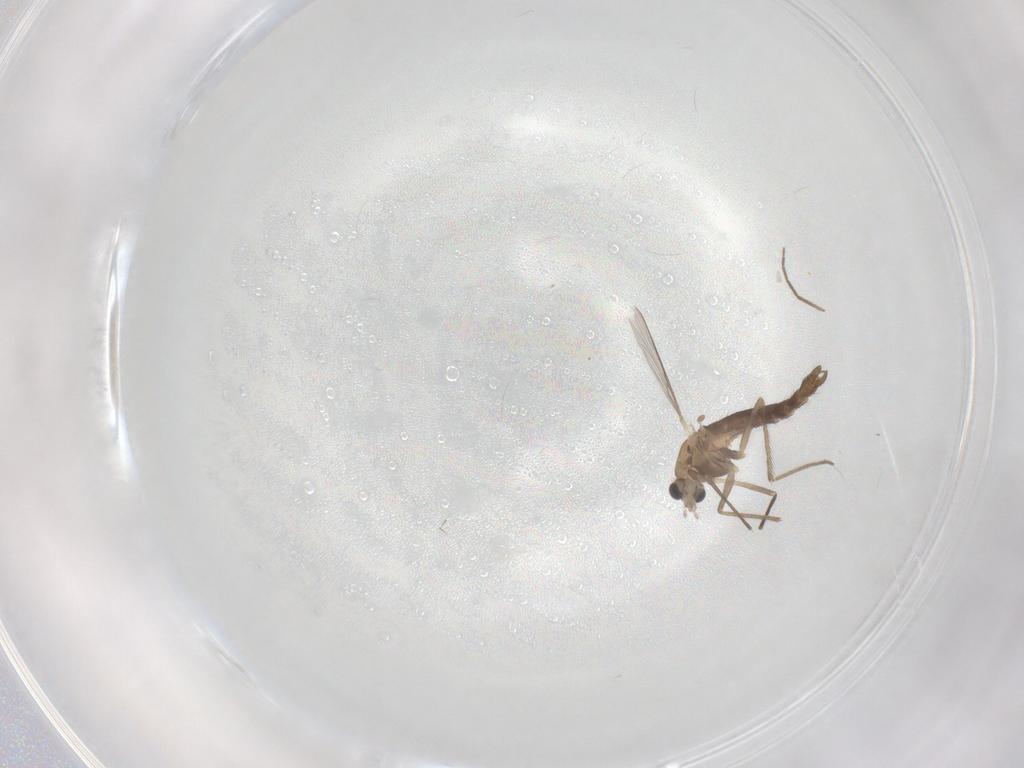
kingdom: Animalia
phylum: Arthropoda
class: Insecta
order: Diptera
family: Chironomidae
